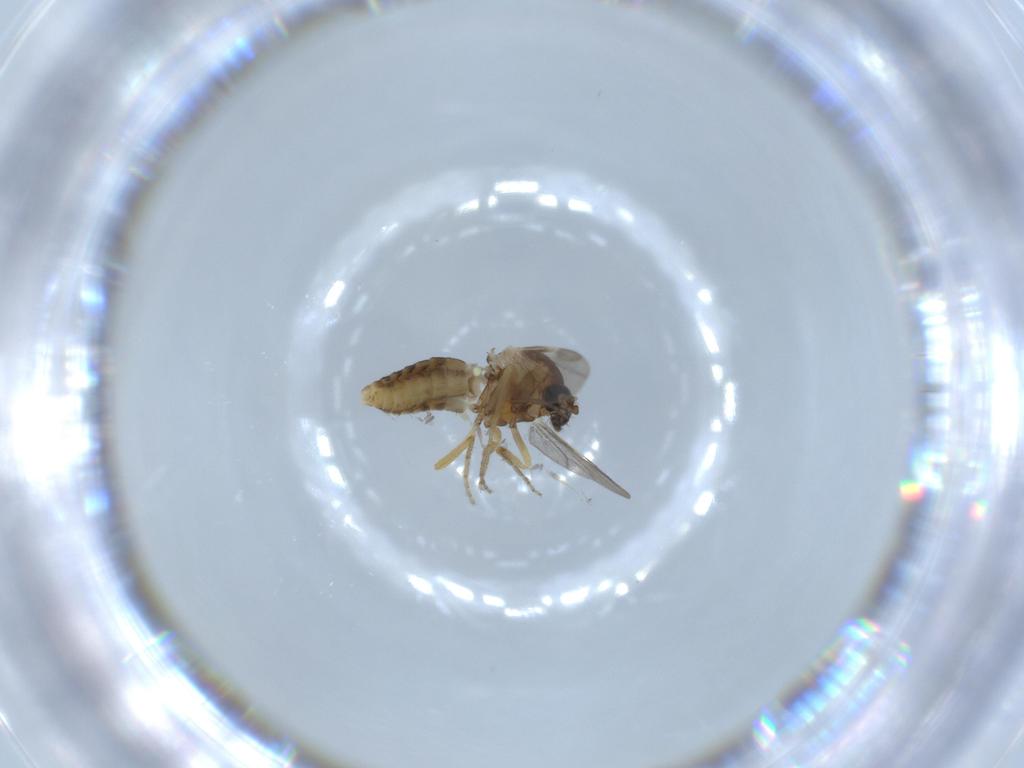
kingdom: Animalia
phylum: Arthropoda
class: Insecta
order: Diptera
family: Ceratopogonidae
